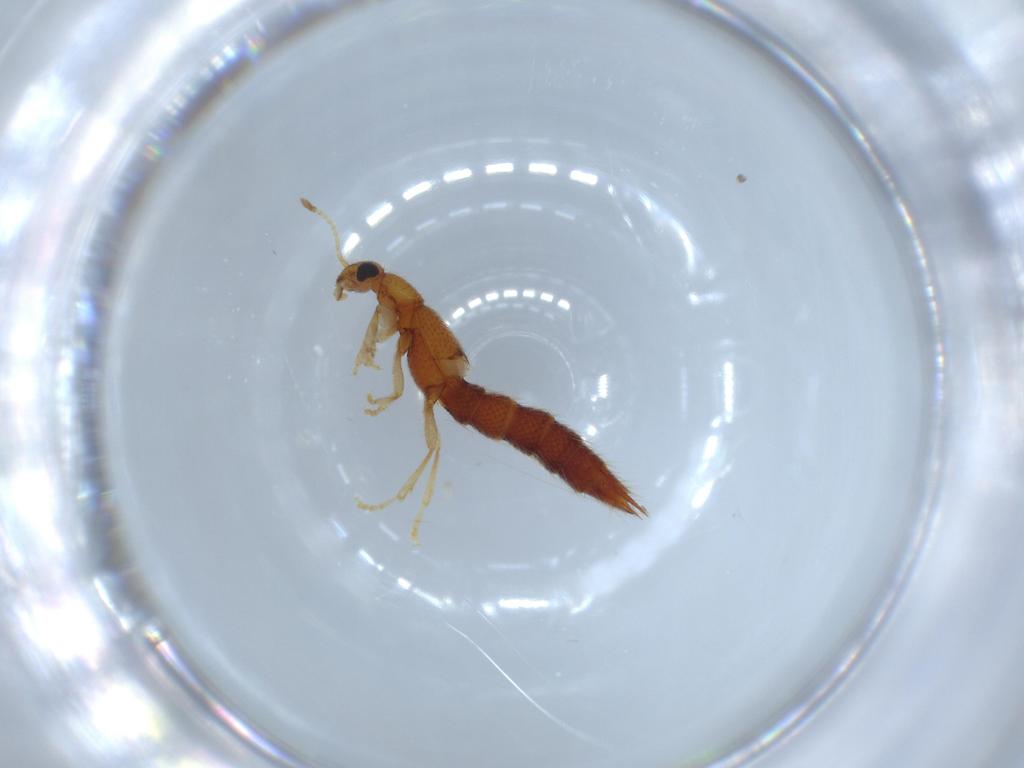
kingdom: Animalia
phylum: Arthropoda
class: Insecta
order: Coleoptera
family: Staphylinidae
